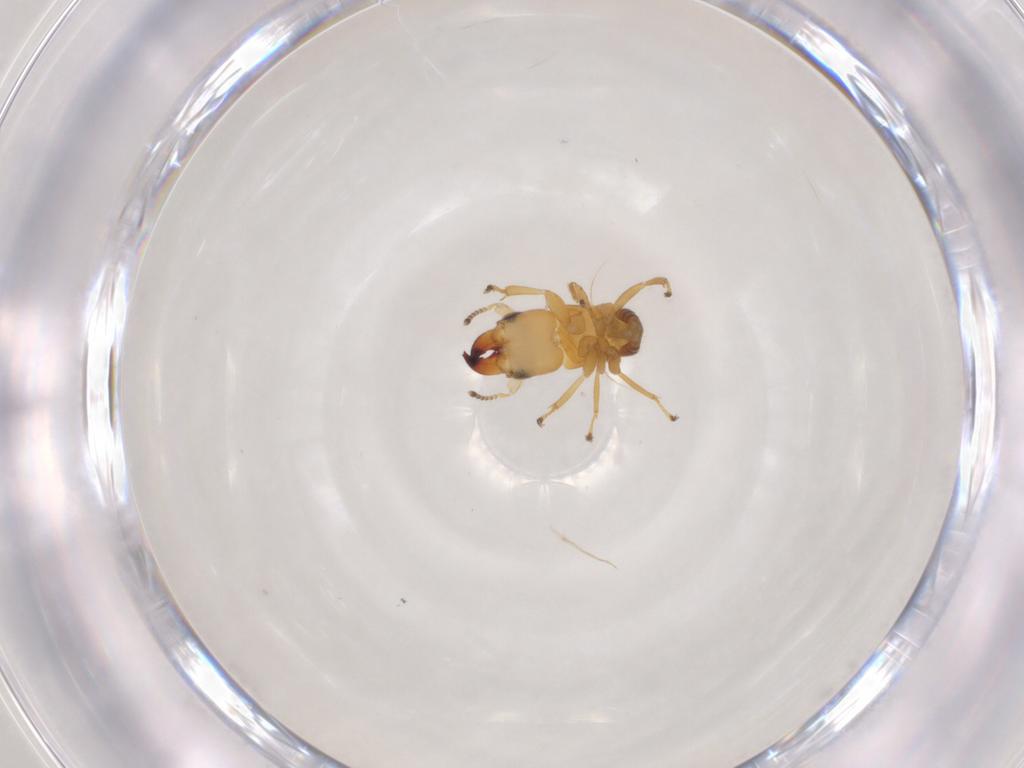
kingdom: Animalia
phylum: Arthropoda
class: Insecta
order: Hymenoptera
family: Pteromalidae
